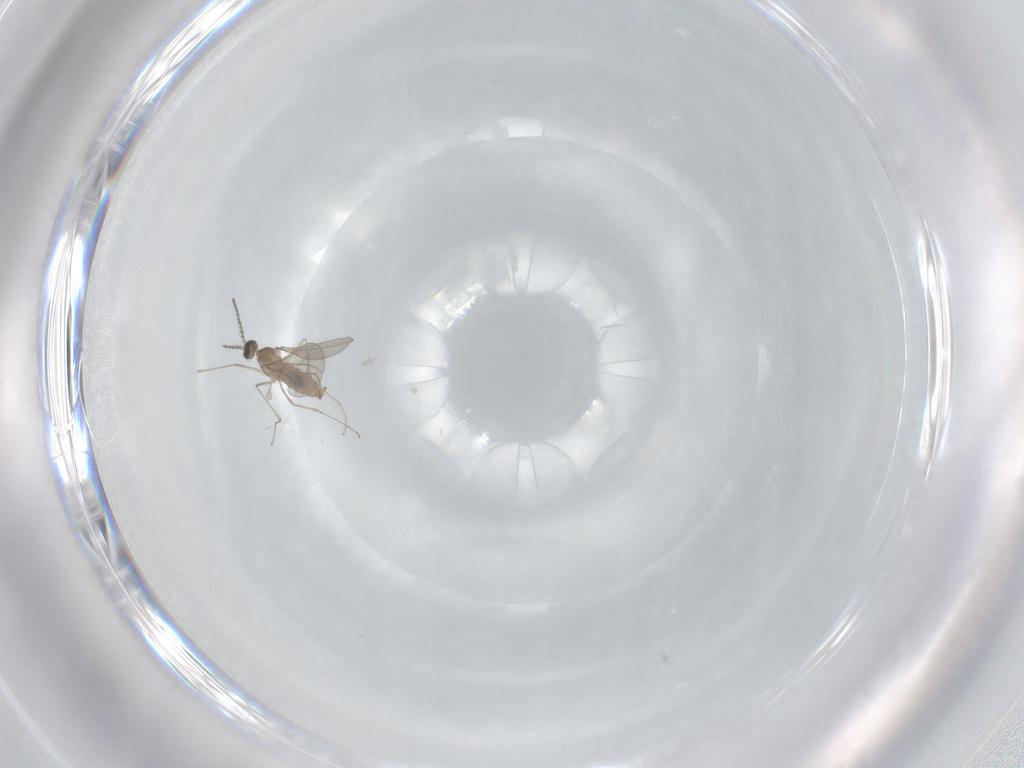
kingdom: Animalia
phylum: Arthropoda
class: Insecta
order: Diptera
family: Cecidomyiidae
